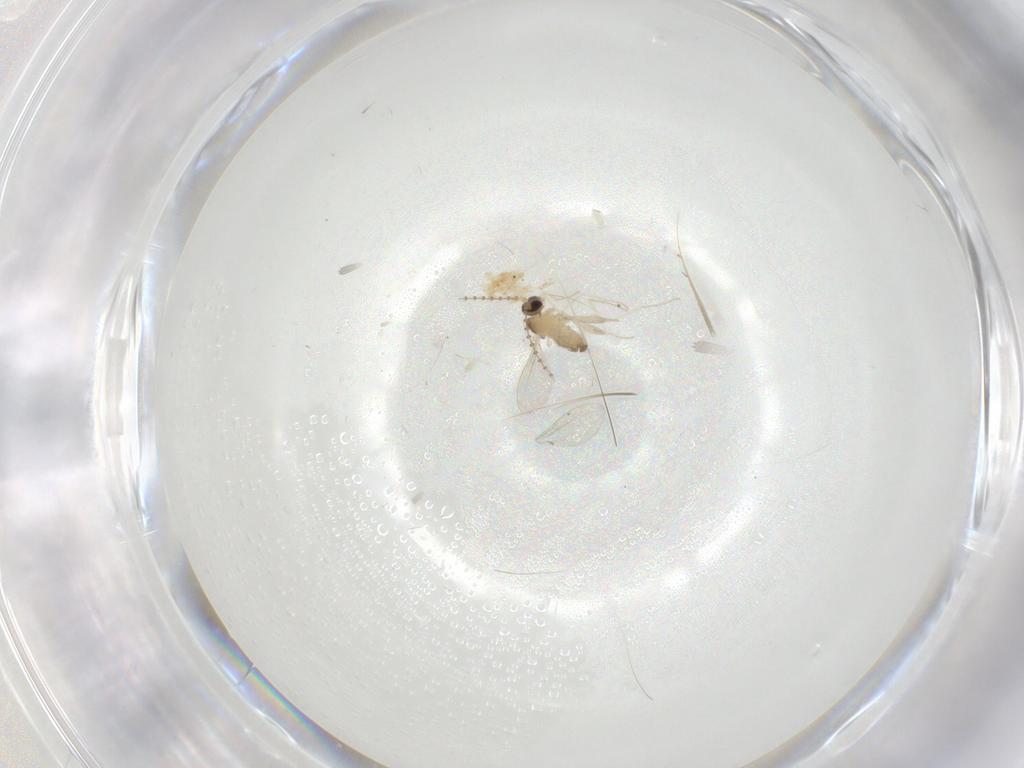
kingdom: Animalia
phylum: Arthropoda
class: Insecta
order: Diptera
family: Cecidomyiidae
